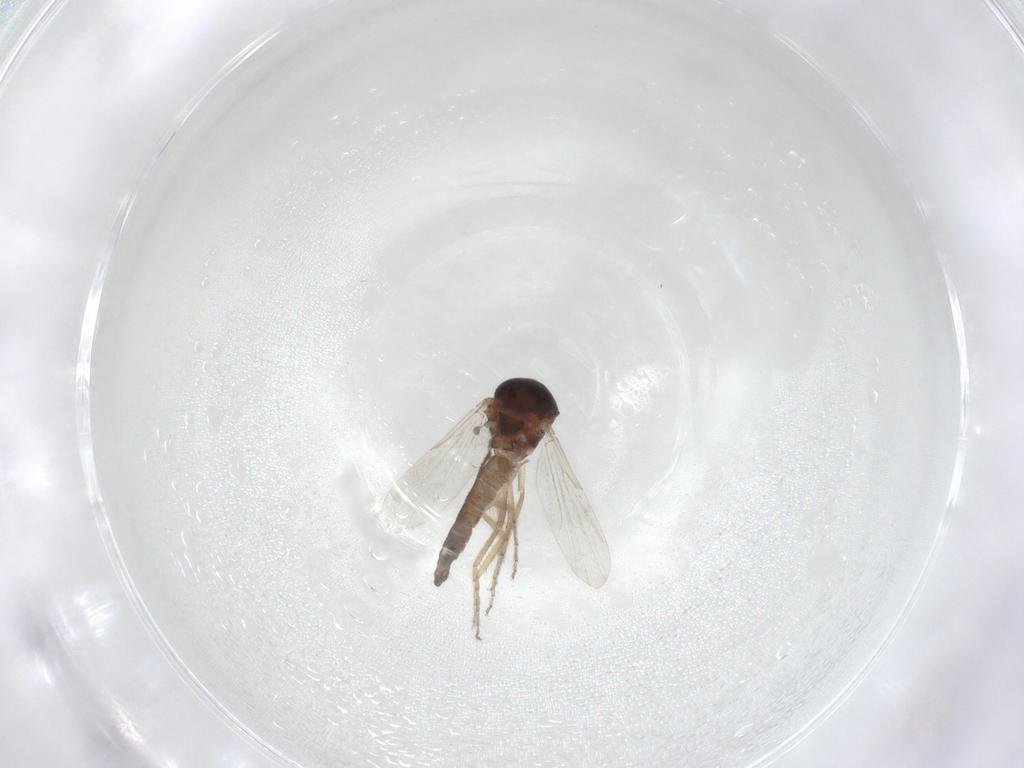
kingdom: Animalia
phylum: Arthropoda
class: Insecta
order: Diptera
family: Ceratopogonidae
